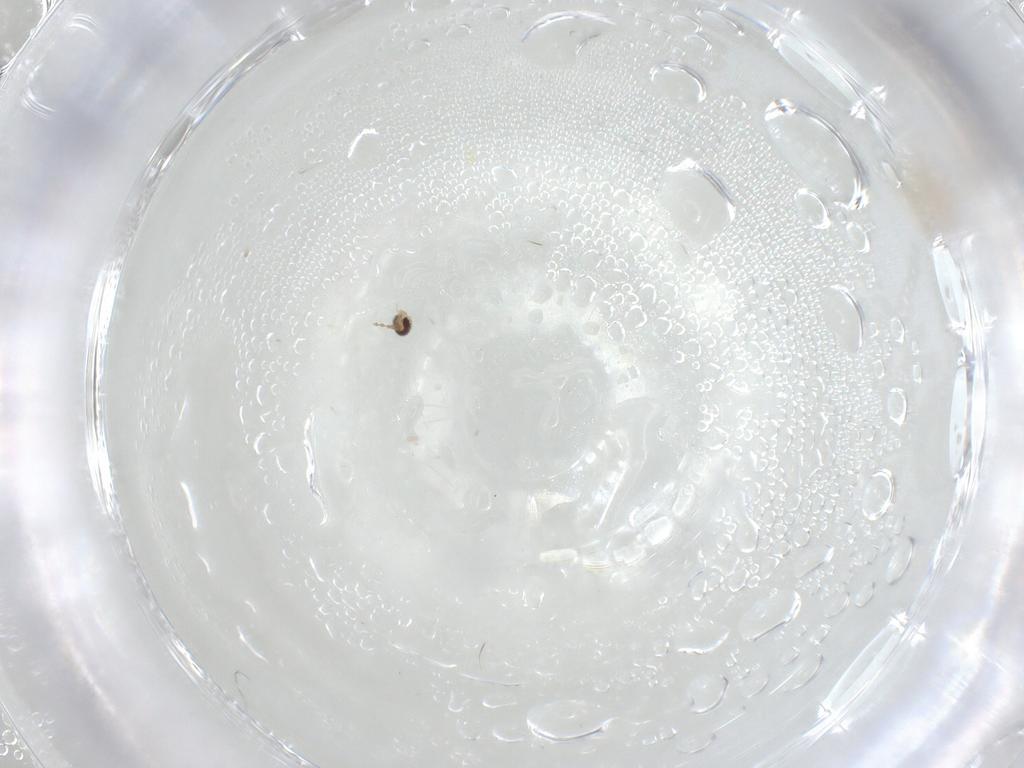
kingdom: Animalia
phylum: Arthropoda
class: Insecta
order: Diptera
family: Cecidomyiidae
